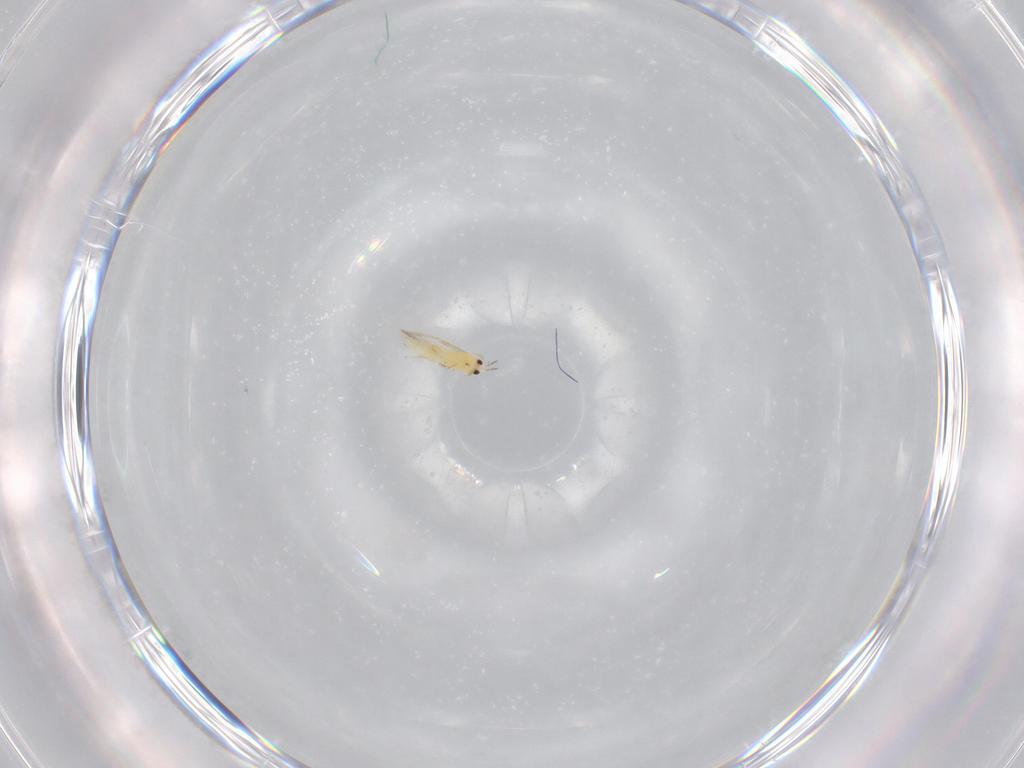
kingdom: Animalia
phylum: Arthropoda
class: Insecta
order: Thysanoptera
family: Thripidae
